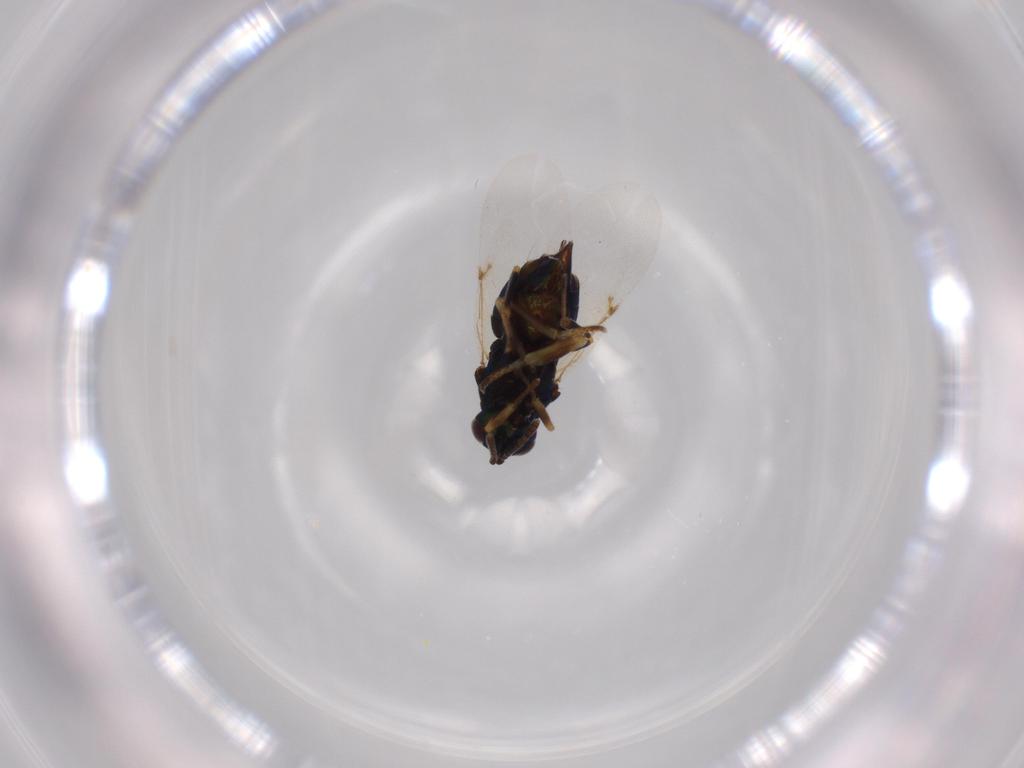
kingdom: Animalia
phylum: Arthropoda
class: Insecta
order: Hymenoptera
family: Encyrtidae
